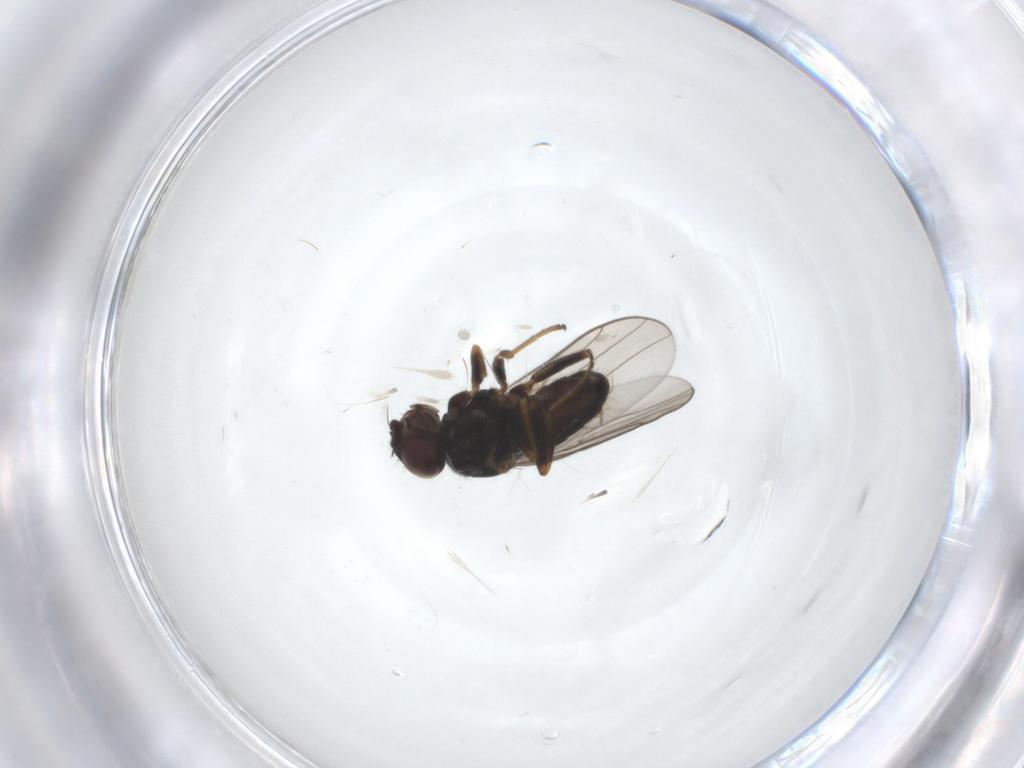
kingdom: Animalia
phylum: Arthropoda
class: Insecta
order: Diptera
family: Chloropidae
